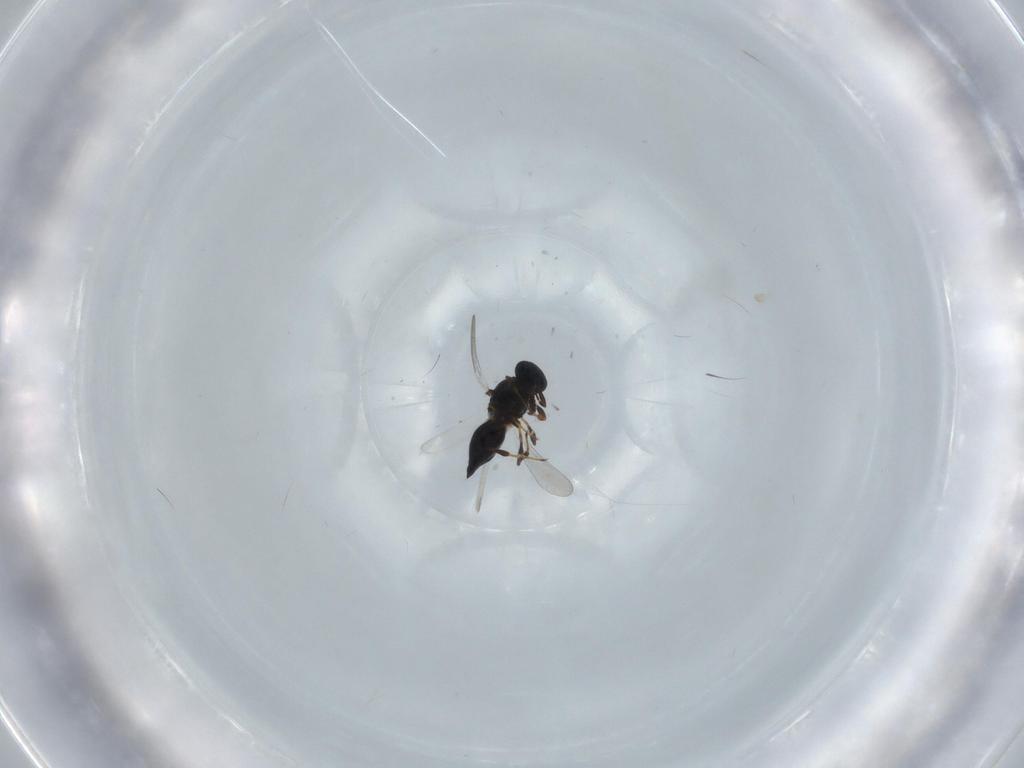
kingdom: Animalia
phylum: Arthropoda
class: Insecta
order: Hymenoptera
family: Platygastridae
